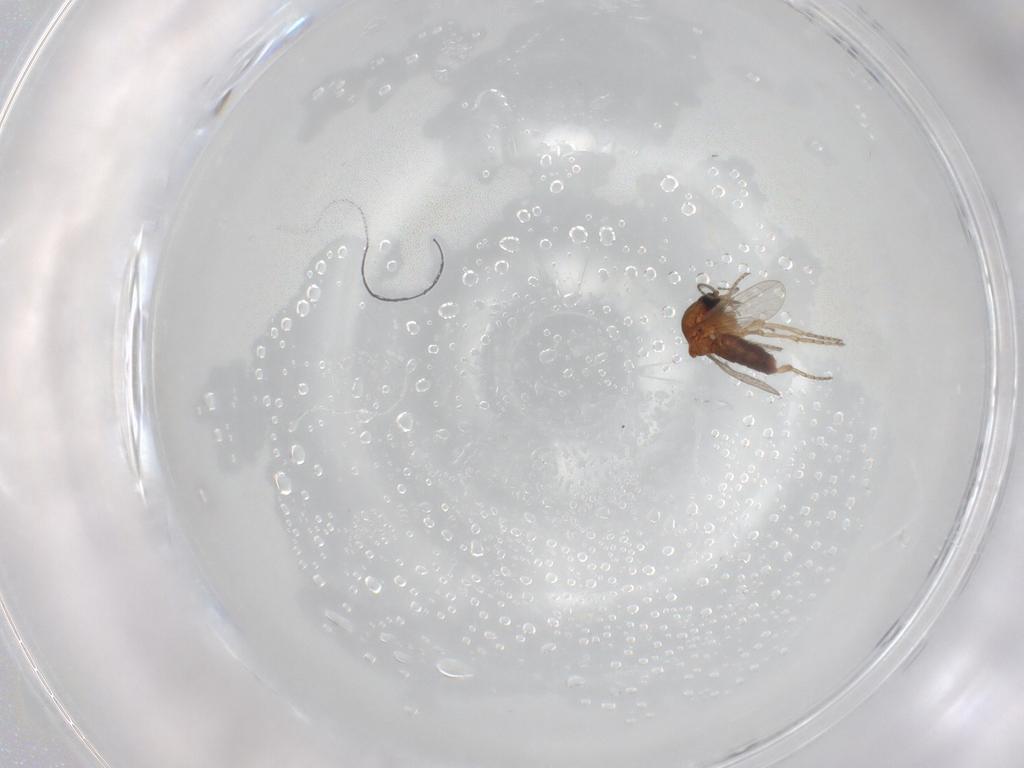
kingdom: Animalia
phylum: Arthropoda
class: Insecta
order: Diptera
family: Ceratopogonidae
